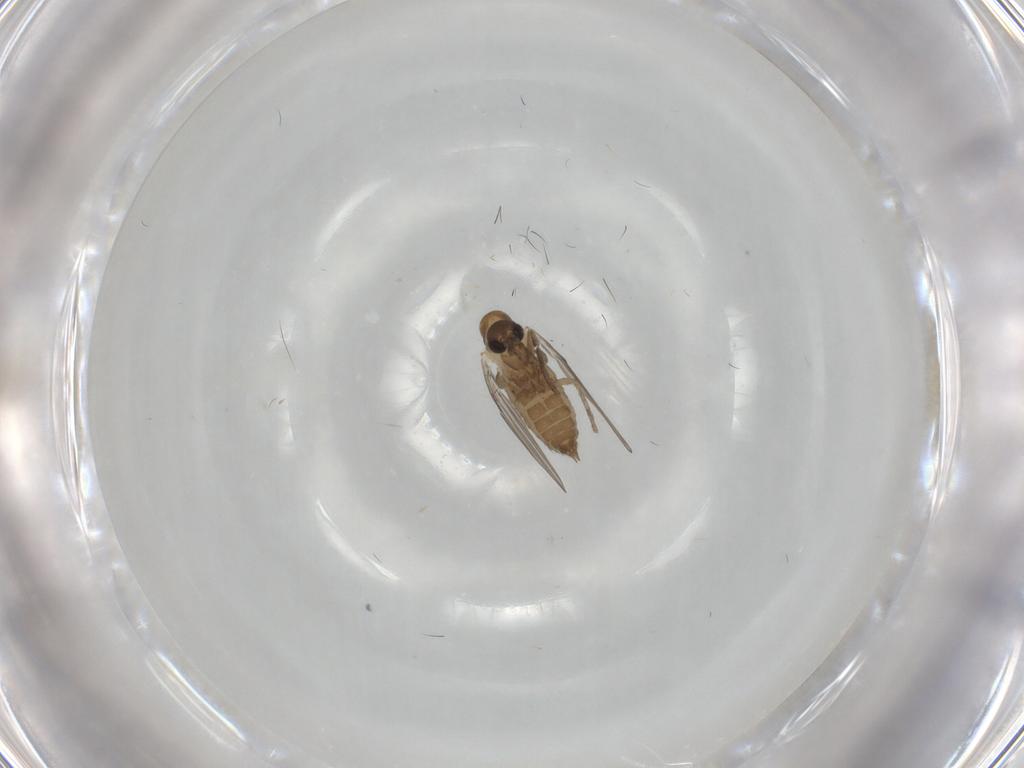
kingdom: Animalia
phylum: Arthropoda
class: Insecta
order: Diptera
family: Psychodidae
